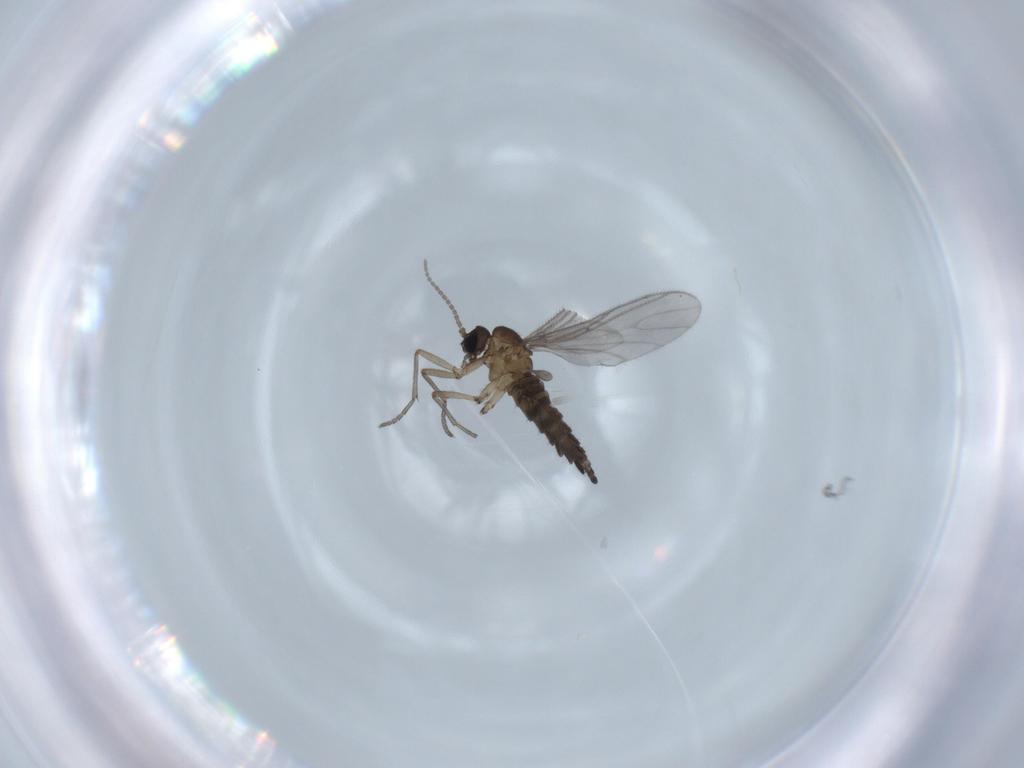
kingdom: Animalia
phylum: Arthropoda
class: Insecta
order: Diptera
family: Sciaridae
